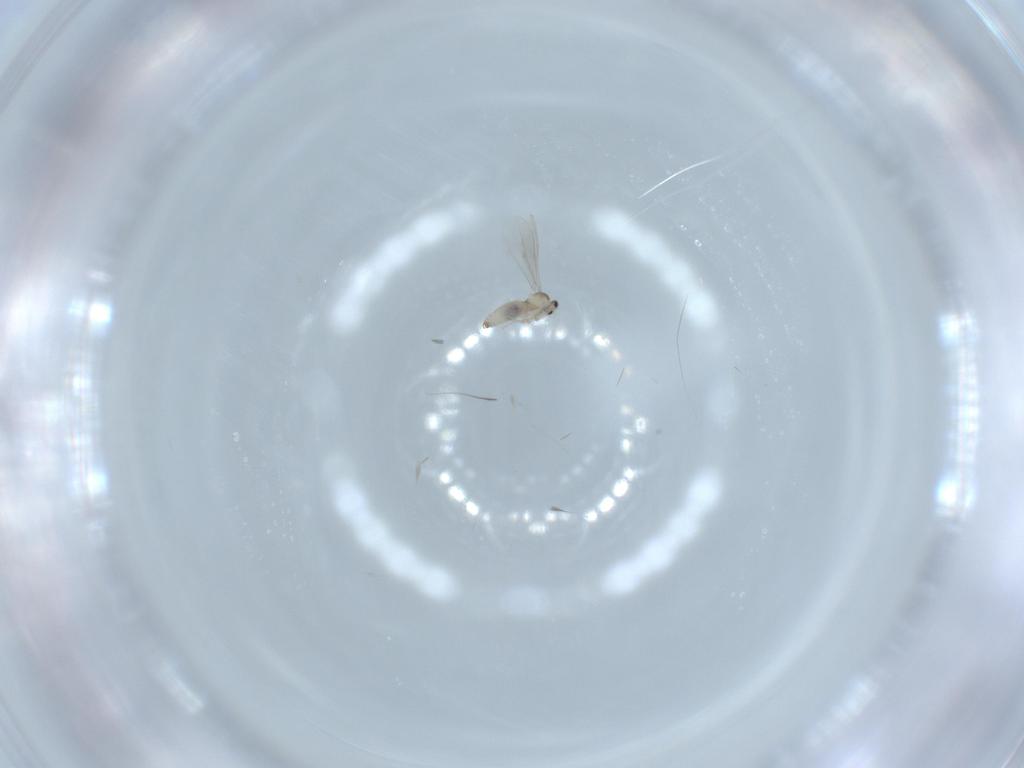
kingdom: Animalia
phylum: Arthropoda
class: Insecta
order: Diptera
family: Cecidomyiidae
